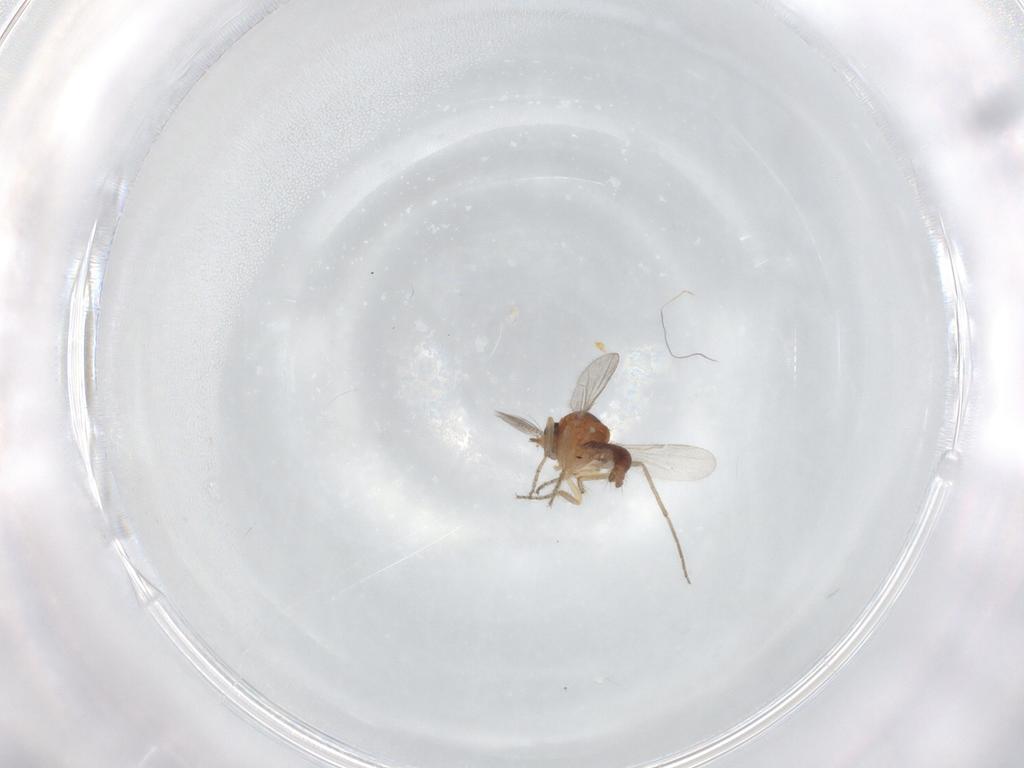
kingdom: Animalia
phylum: Arthropoda
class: Insecta
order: Diptera
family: Ceratopogonidae
